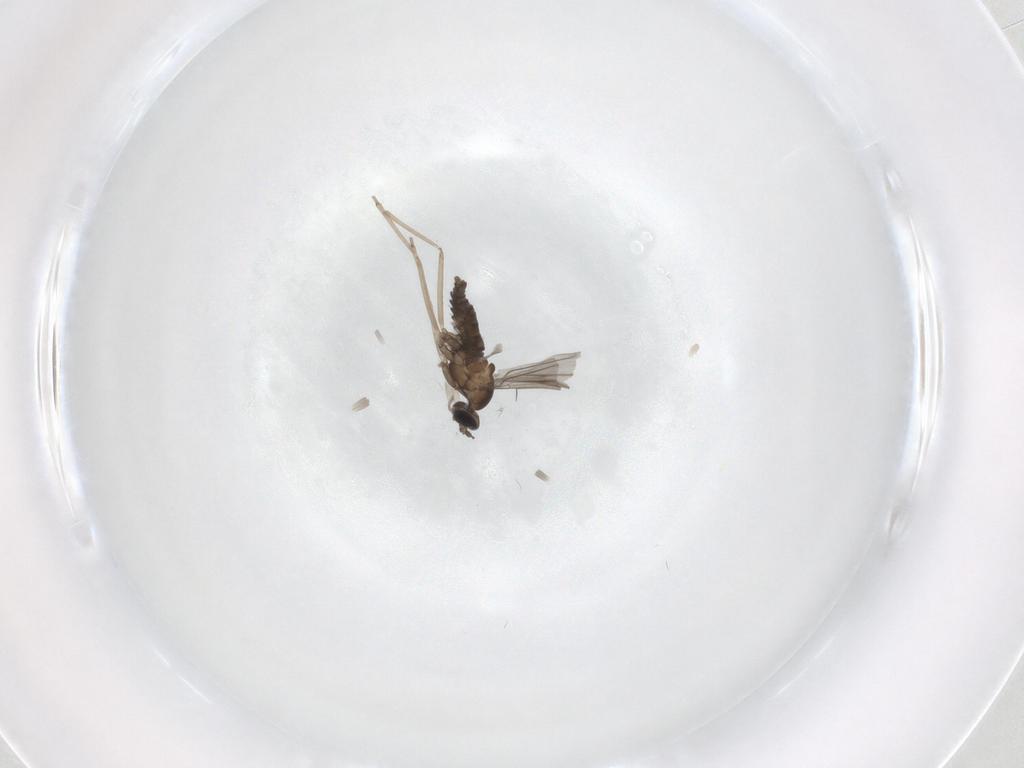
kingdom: Animalia
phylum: Arthropoda
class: Insecta
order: Diptera
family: Cecidomyiidae
